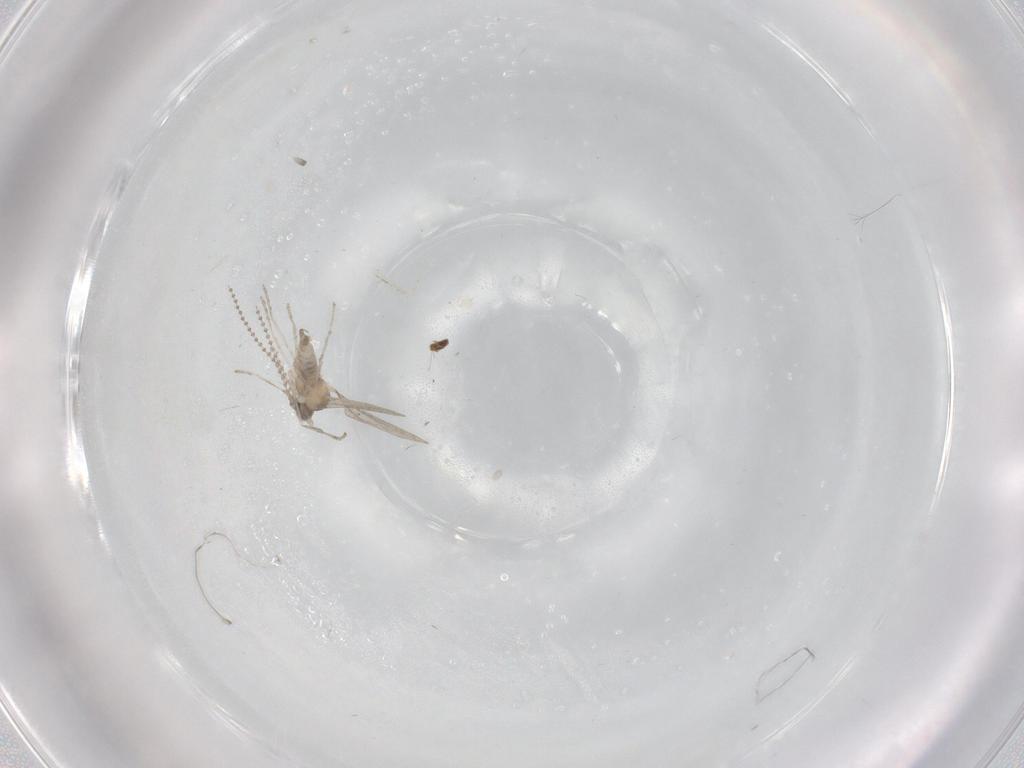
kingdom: Animalia
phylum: Arthropoda
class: Insecta
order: Diptera
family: Cecidomyiidae
